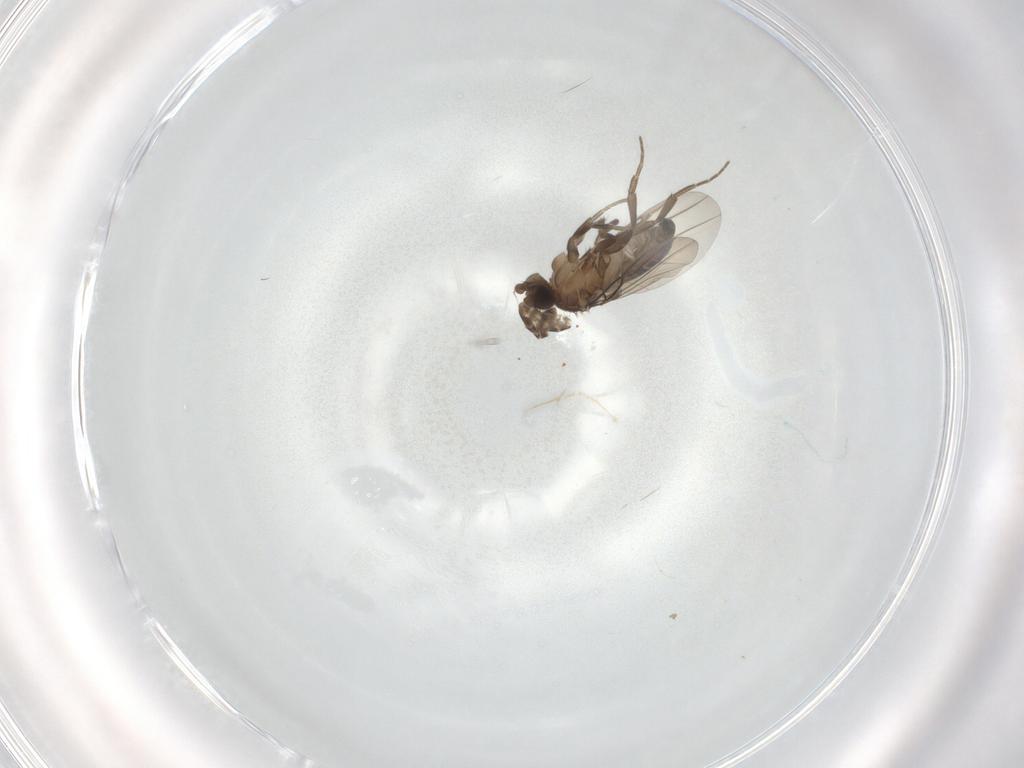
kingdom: Animalia
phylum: Arthropoda
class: Insecta
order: Diptera
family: Phoridae
